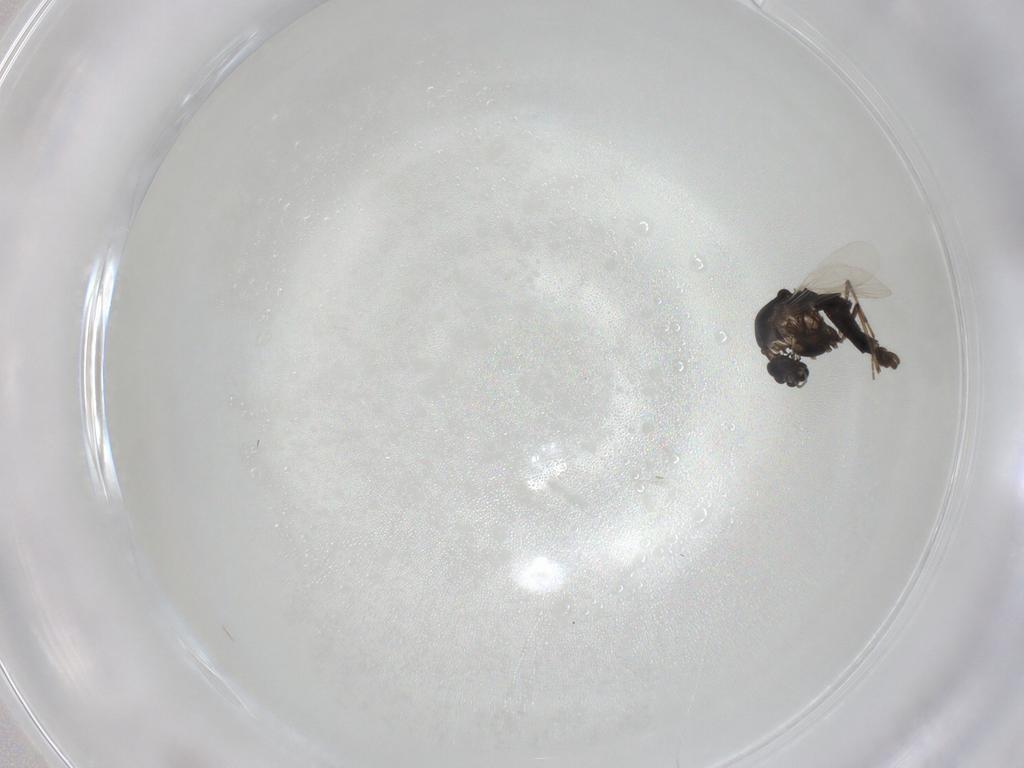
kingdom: Animalia
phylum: Arthropoda
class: Insecta
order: Diptera
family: Chironomidae
